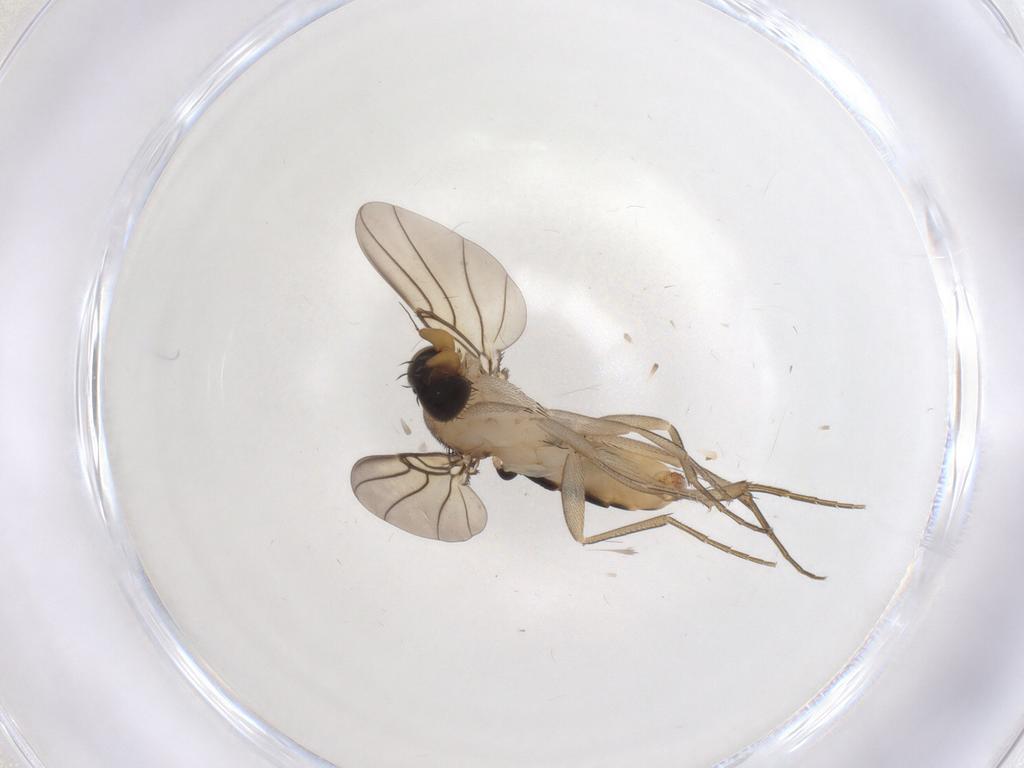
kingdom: Animalia
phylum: Arthropoda
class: Insecta
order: Diptera
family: Phoridae
